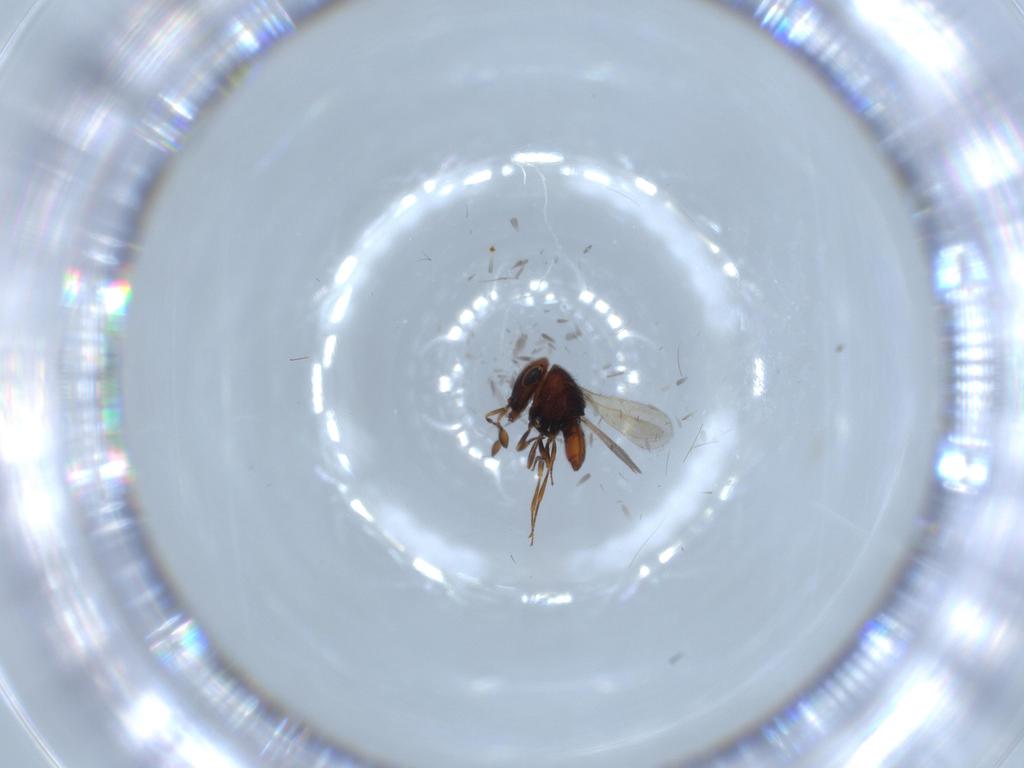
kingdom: Animalia
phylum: Arthropoda
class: Insecta
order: Hymenoptera
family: Scelionidae
